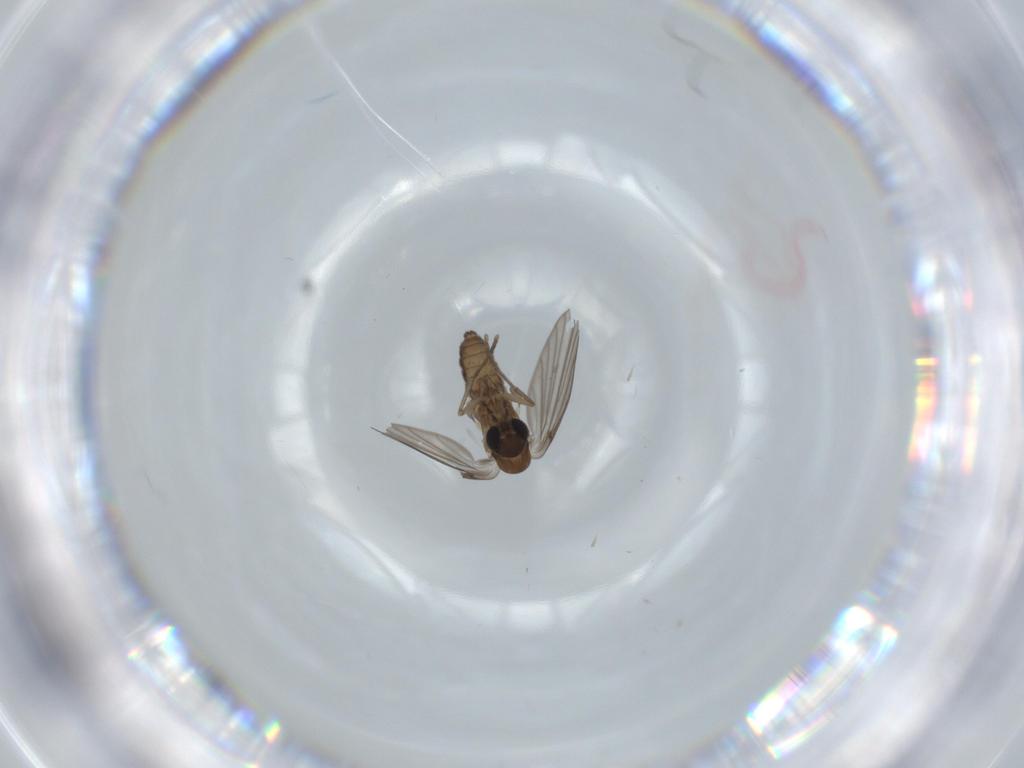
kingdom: Animalia
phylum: Arthropoda
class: Insecta
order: Diptera
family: Psychodidae
